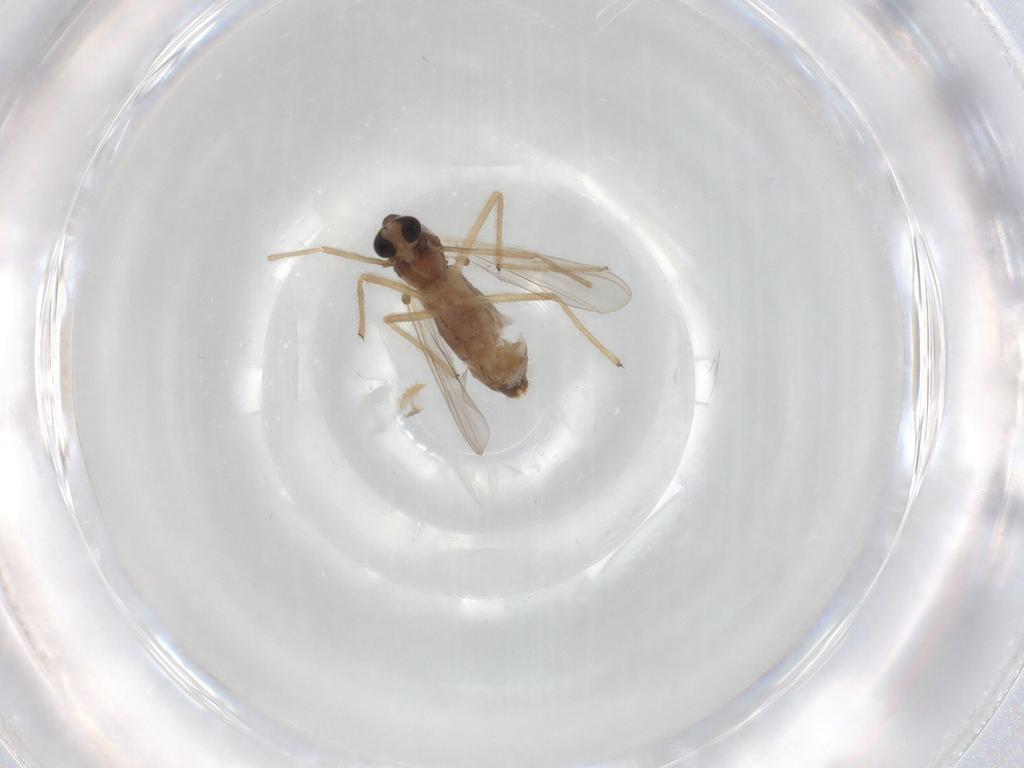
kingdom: Animalia
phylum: Arthropoda
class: Insecta
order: Diptera
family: Chironomidae
